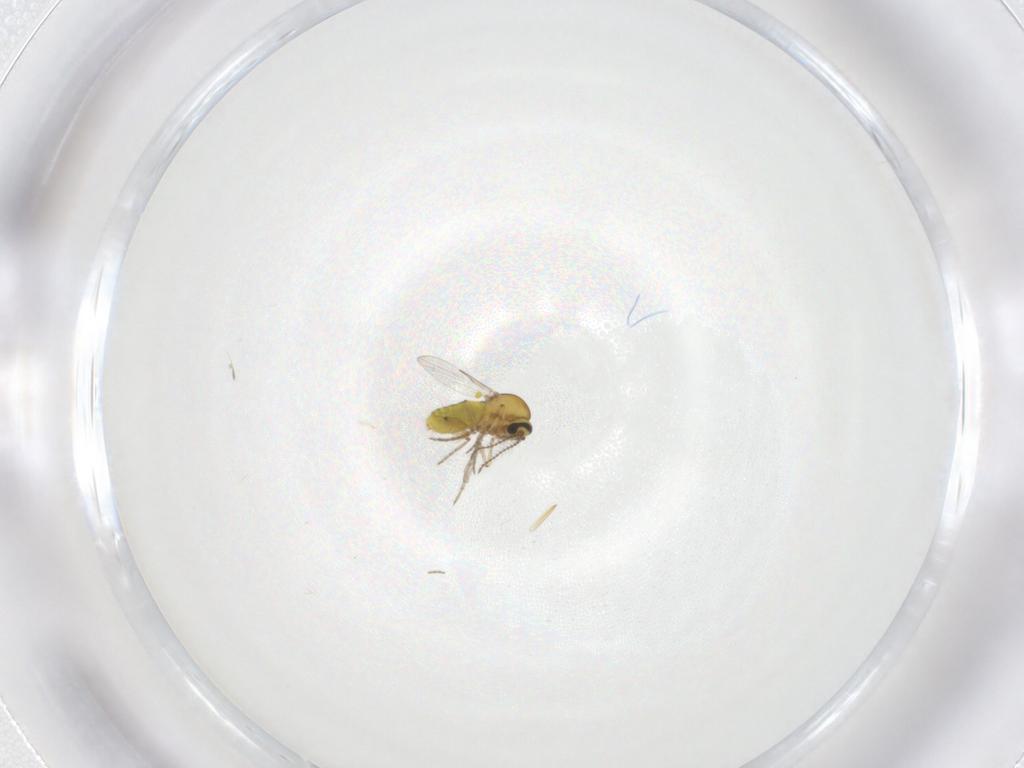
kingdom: Animalia
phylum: Arthropoda
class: Insecta
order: Diptera
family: Ceratopogonidae
